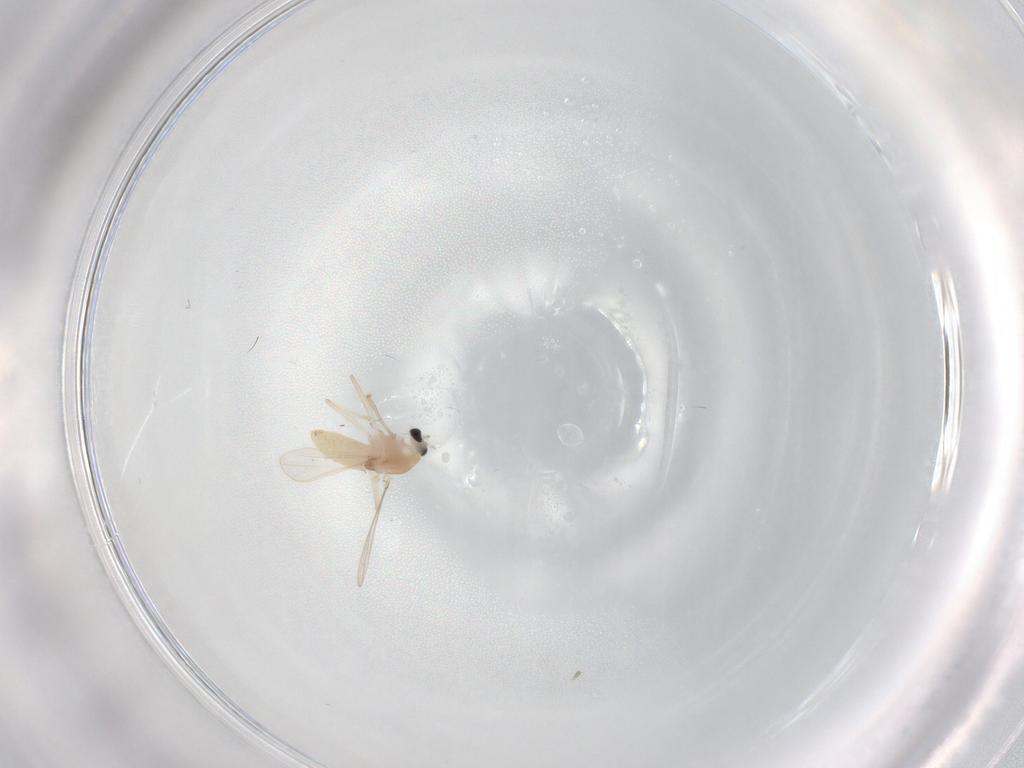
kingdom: Animalia
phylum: Arthropoda
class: Insecta
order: Diptera
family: Chironomidae
